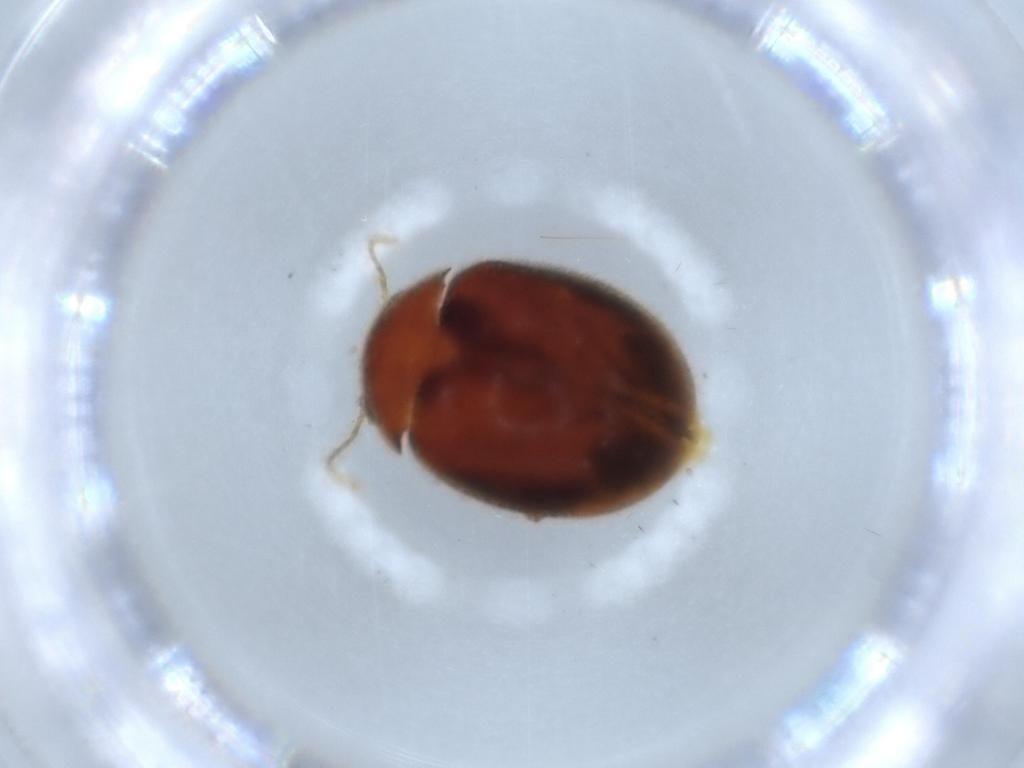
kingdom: Animalia
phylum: Arthropoda
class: Insecta
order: Coleoptera
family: Scirtidae
